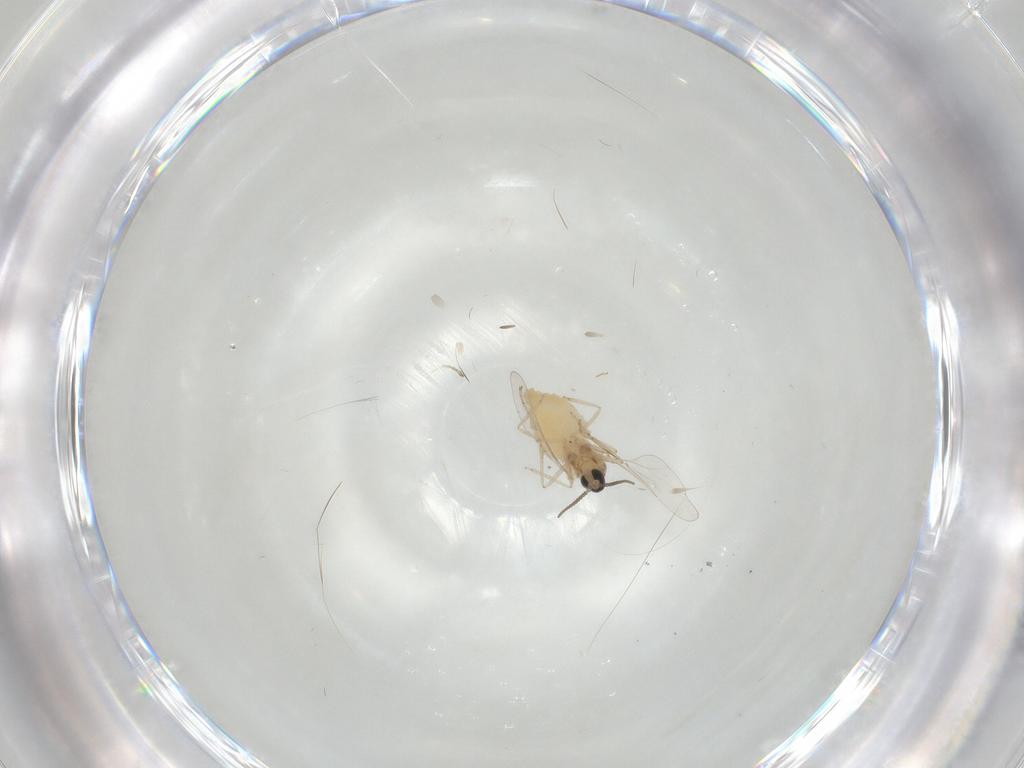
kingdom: Animalia
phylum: Arthropoda
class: Insecta
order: Diptera
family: Cecidomyiidae
